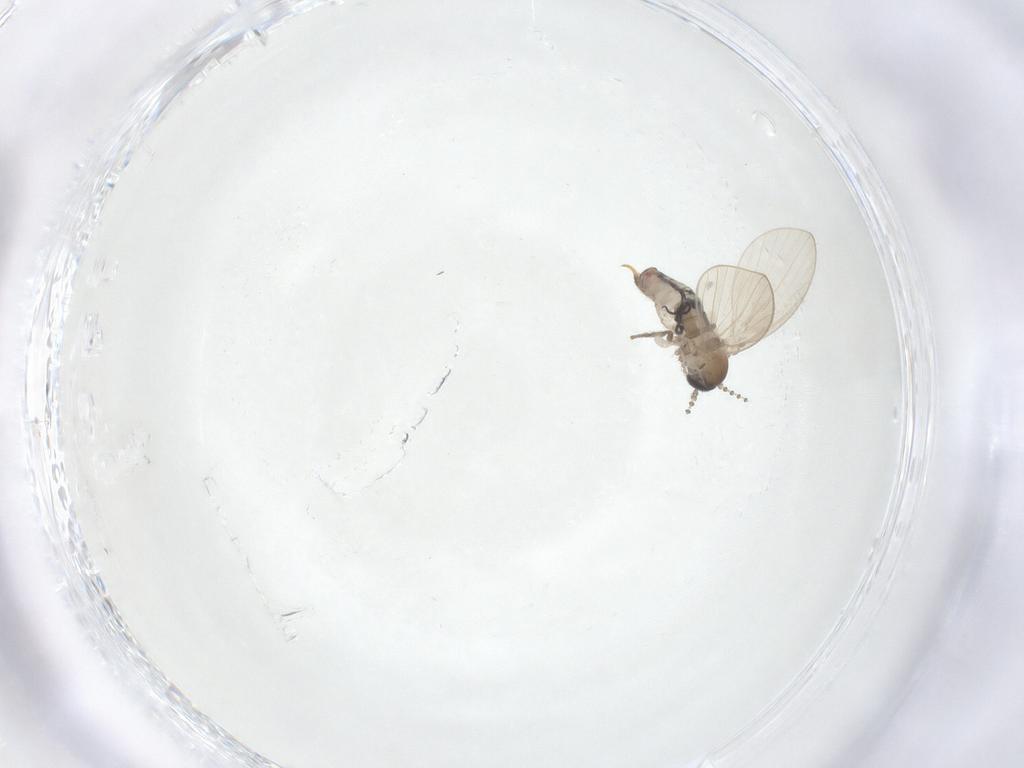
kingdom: Animalia
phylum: Arthropoda
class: Insecta
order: Diptera
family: Psychodidae
